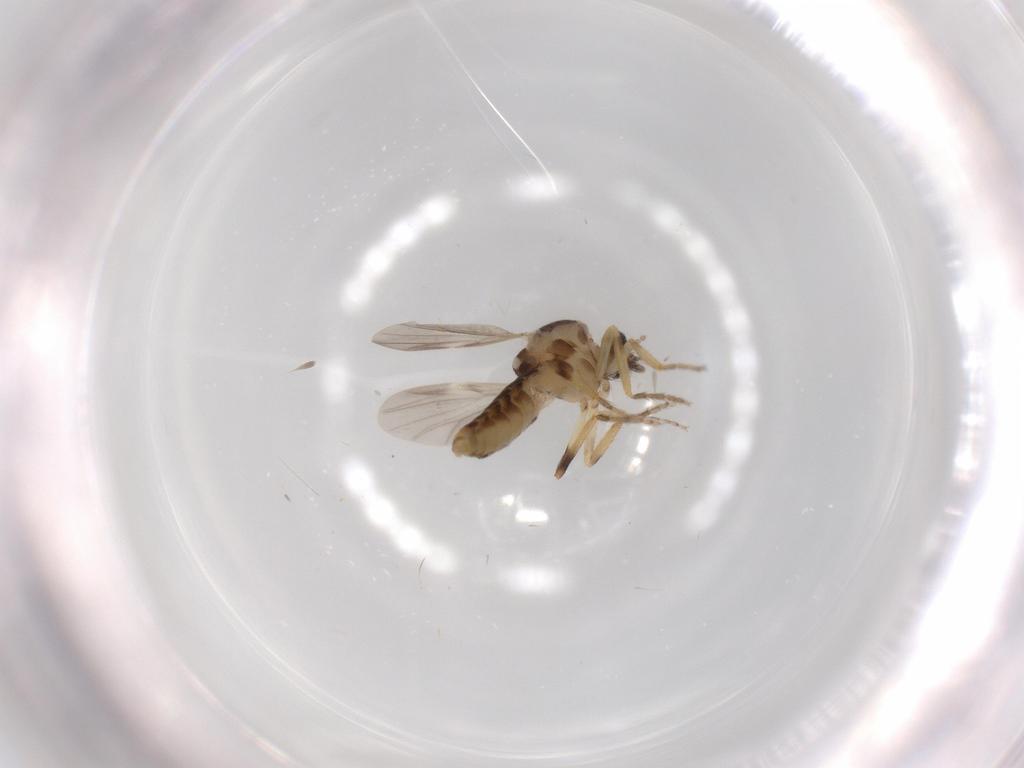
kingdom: Animalia
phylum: Arthropoda
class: Insecta
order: Diptera
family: Ceratopogonidae
